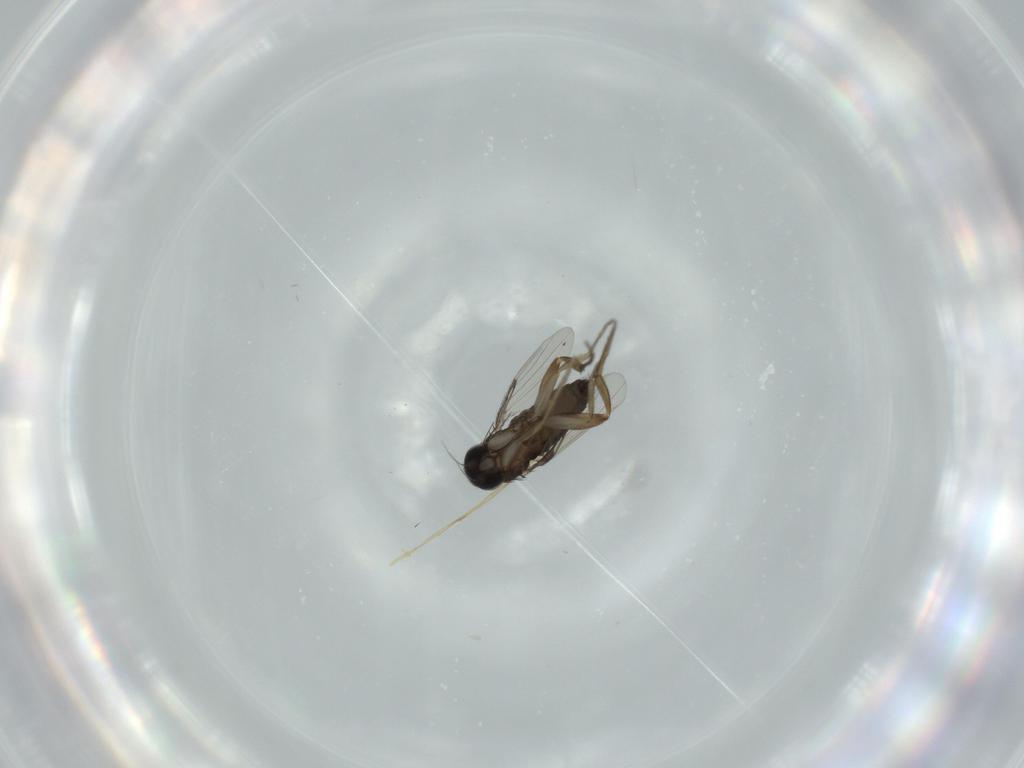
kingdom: Animalia
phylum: Arthropoda
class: Insecta
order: Diptera
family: Phoridae
